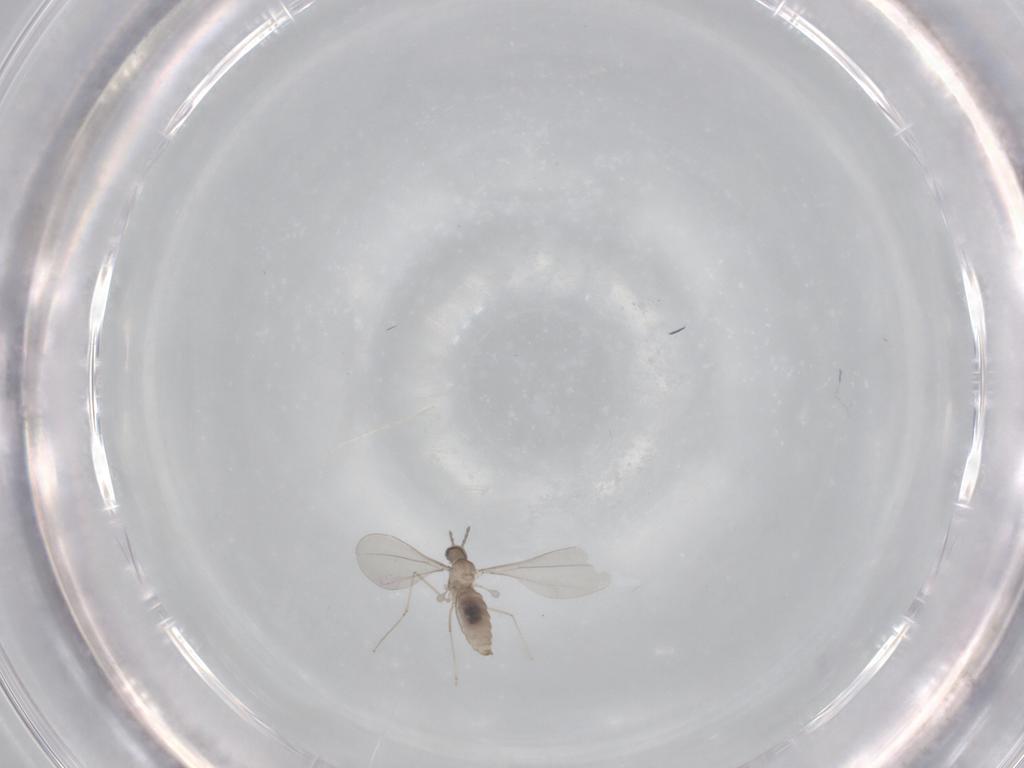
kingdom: Animalia
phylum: Arthropoda
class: Insecta
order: Diptera
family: Cecidomyiidae
